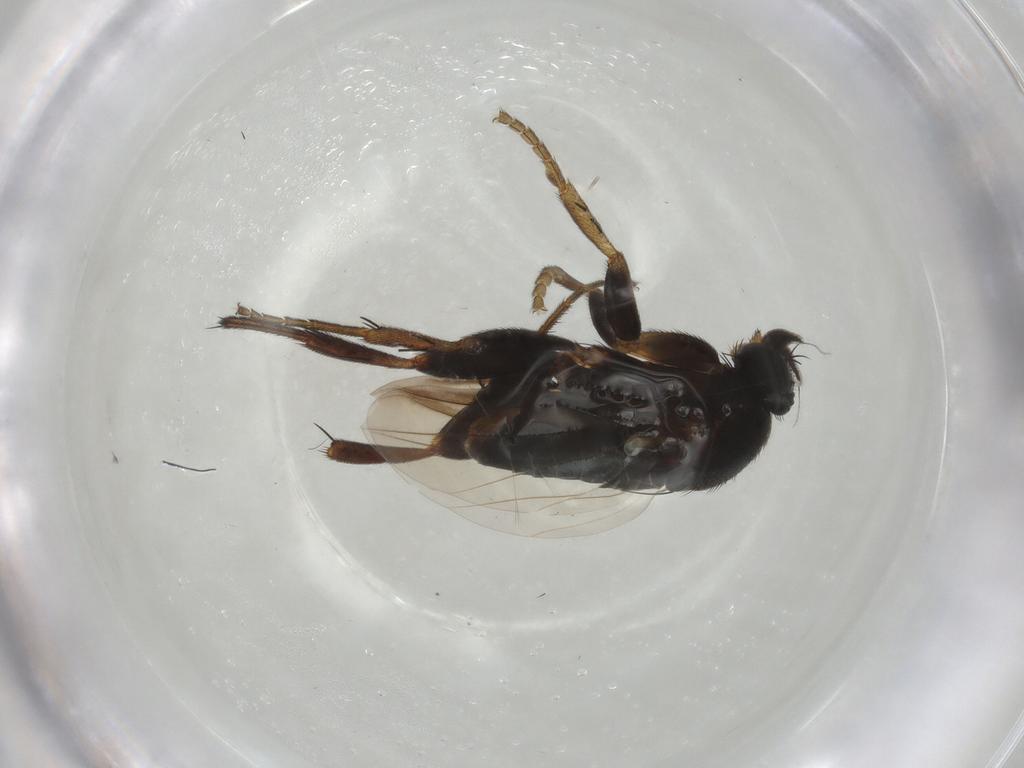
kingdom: Animalia
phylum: Arthropoda
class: Insecta
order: Diptera
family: Phoridae
